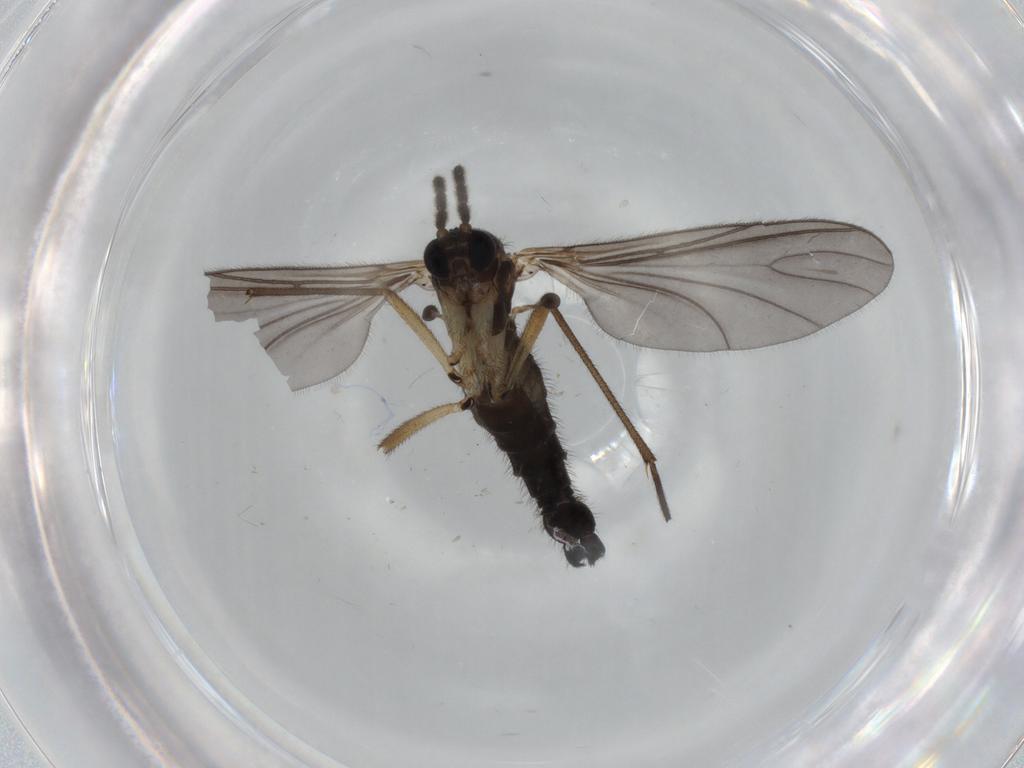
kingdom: Animalia
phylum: Arthropoda
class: Insecta
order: Diptera
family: Sciaridae
